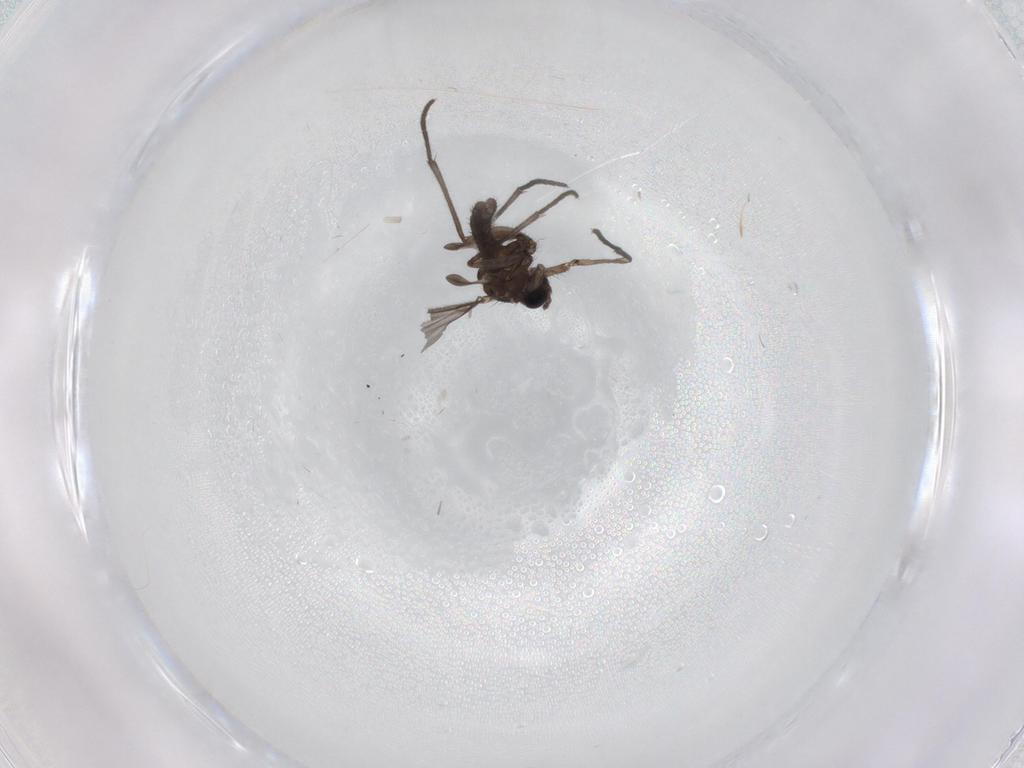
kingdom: Animalia
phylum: Arthropoda
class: Insecta
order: Diptera
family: Sciaridae
